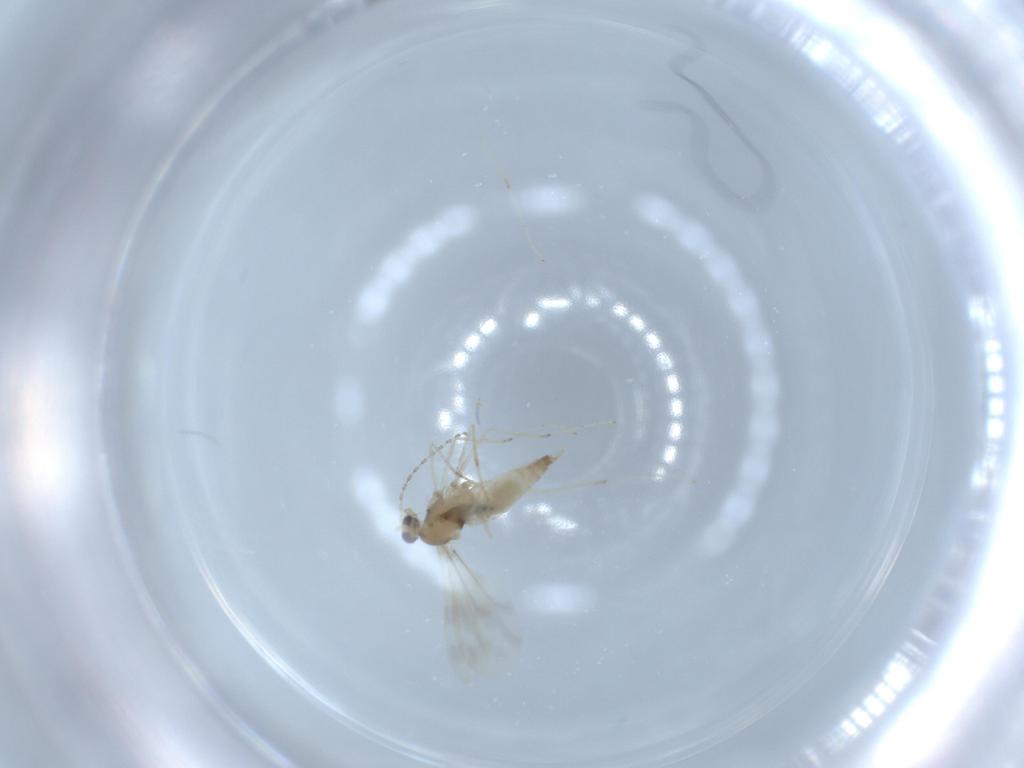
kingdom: Animalia
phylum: Arthropoda
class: Insecta
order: Diptera
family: Cecidomyiidae
